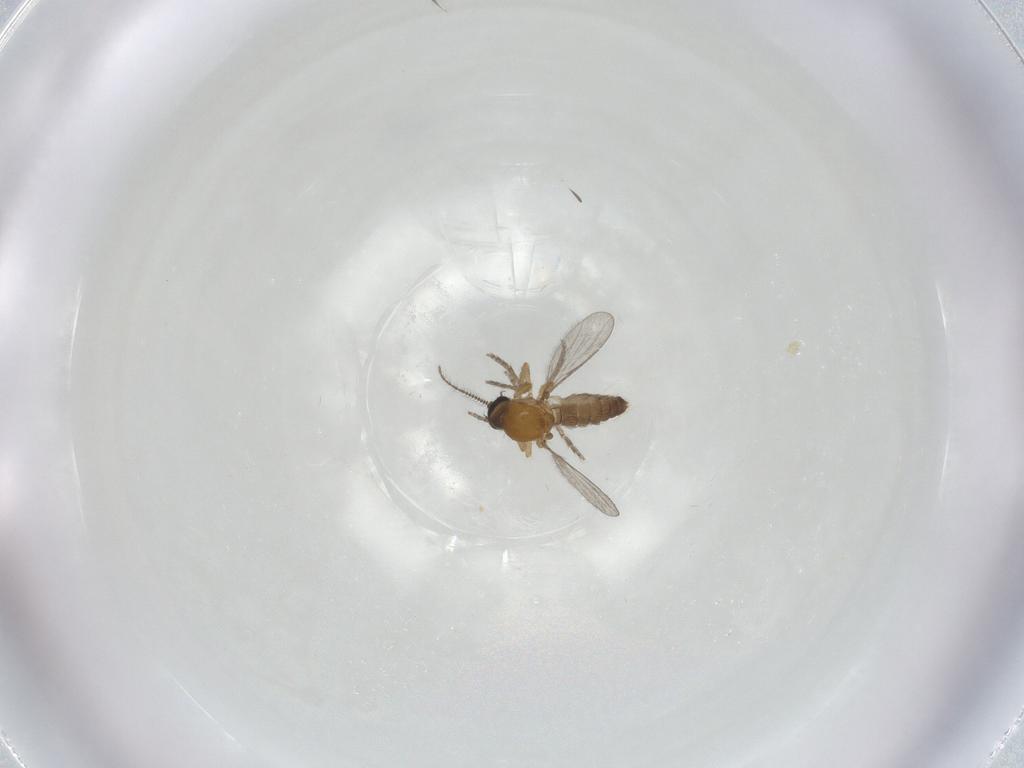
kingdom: Animalia
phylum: Arthropoda
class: Insecta
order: Diptera
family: Ceratopogonidae
